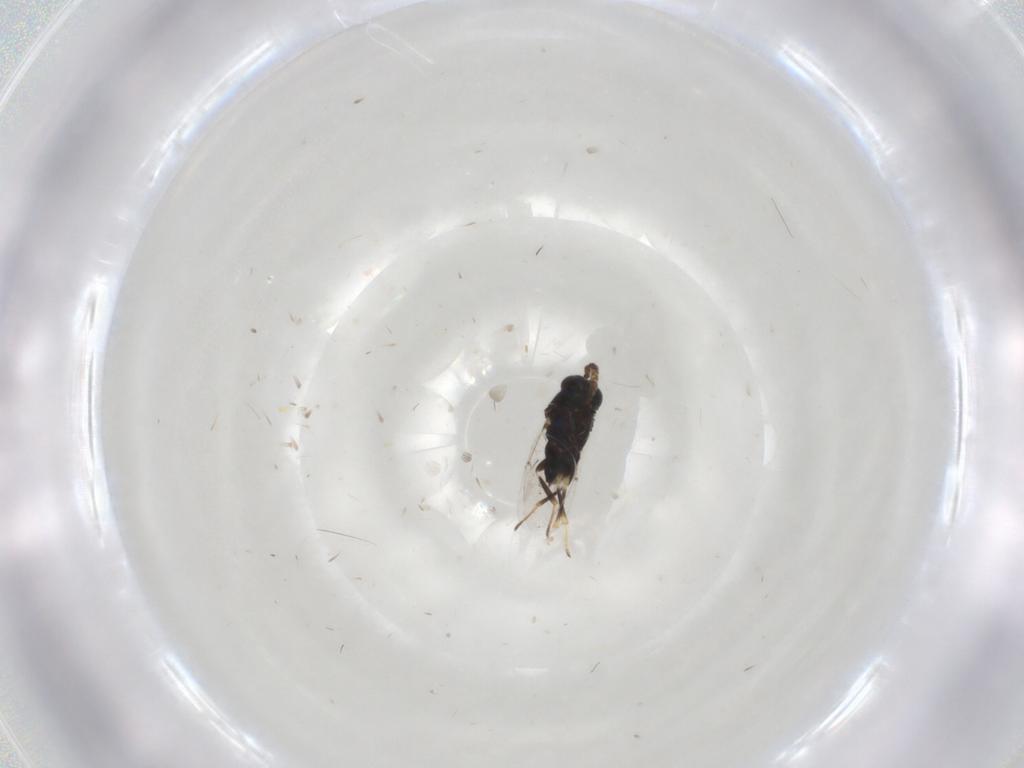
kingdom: Animalia
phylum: Arthropoda
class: Insecta
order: Hymenoptera
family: Encyrtidae
